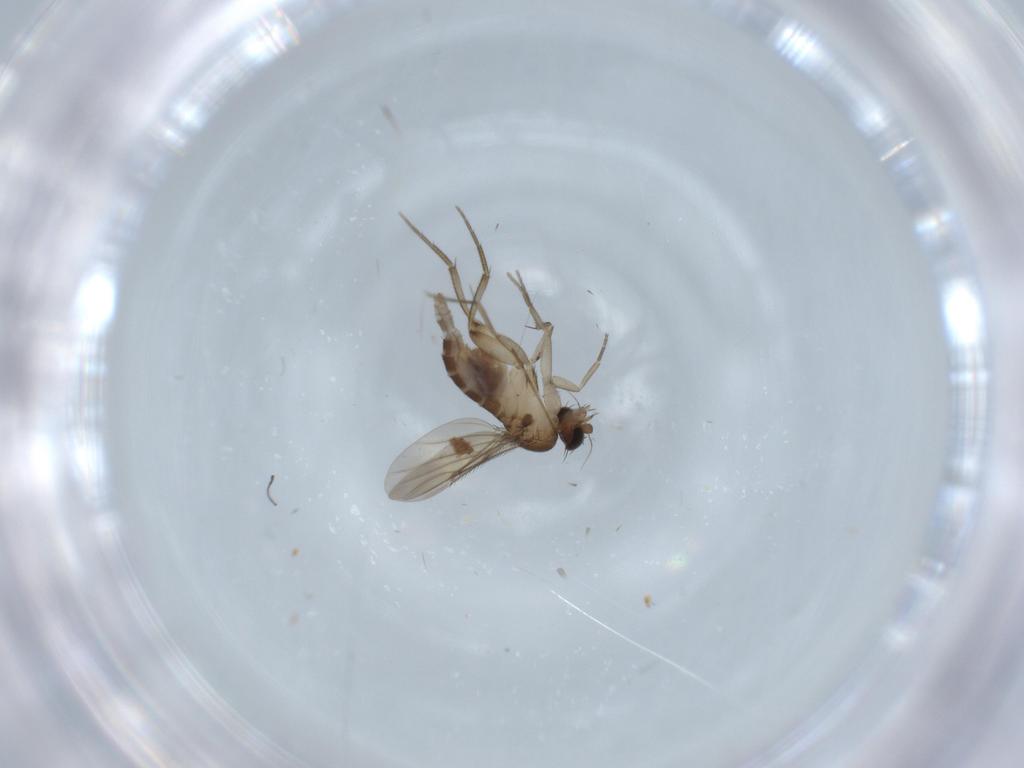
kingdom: Animalia
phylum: Arthropoda
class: Insecta
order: Diptera
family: Phoridae
